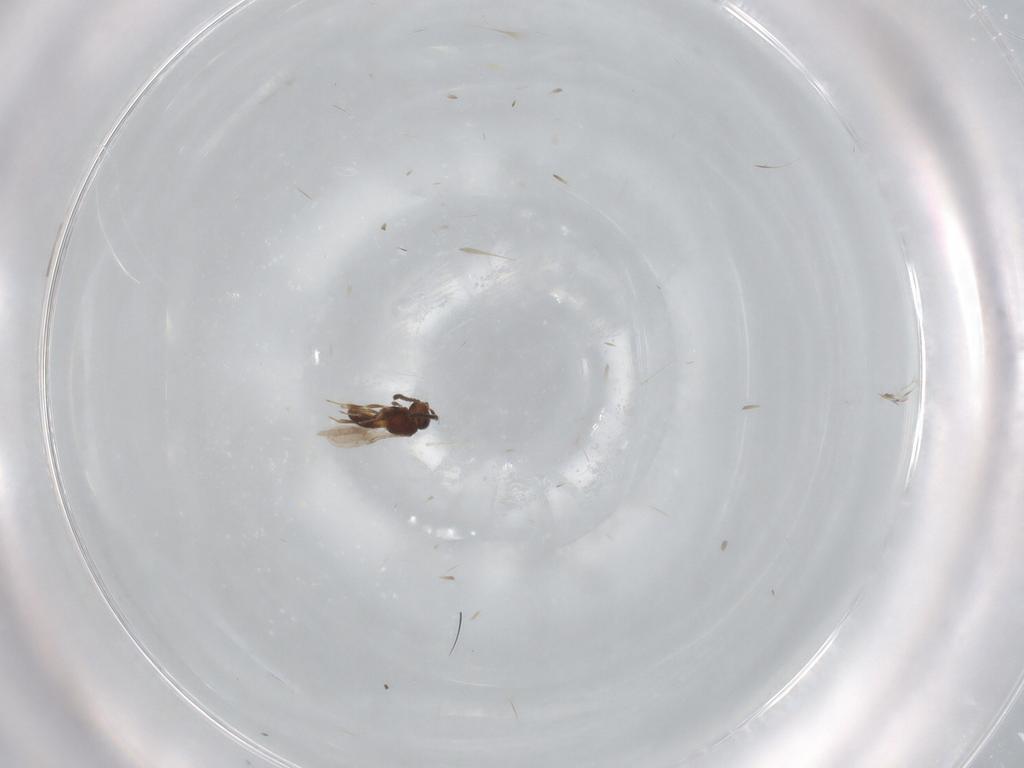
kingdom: Animalia
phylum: Arthropoda
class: Insecta
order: Hymenoptera
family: Scelionidae
